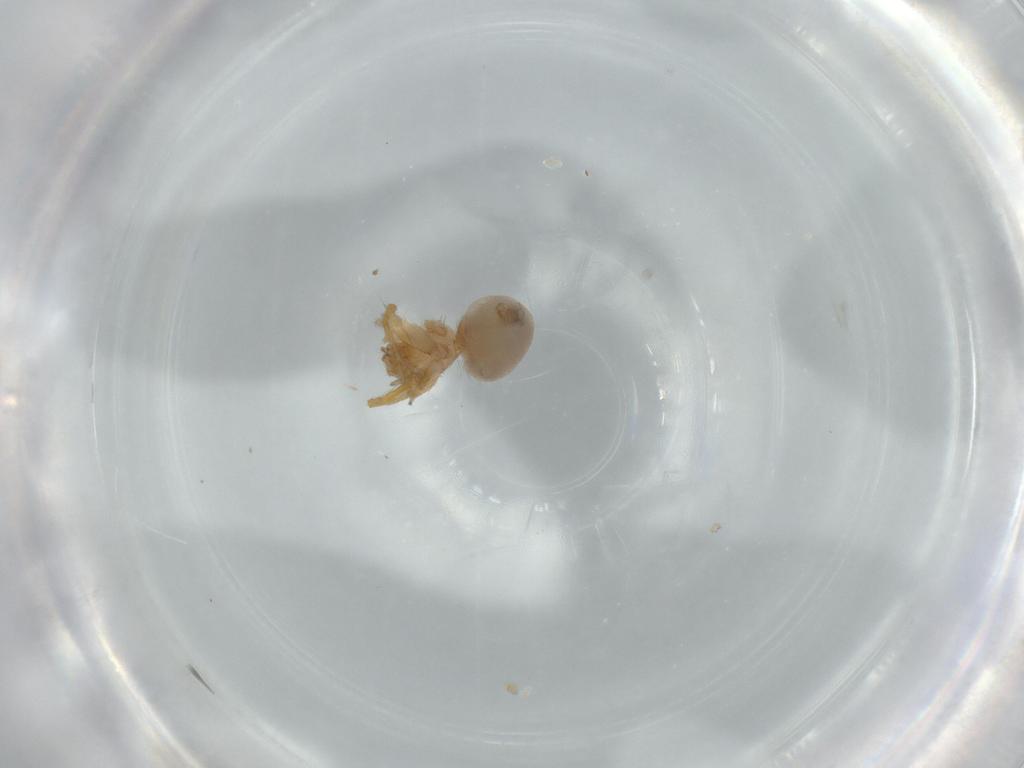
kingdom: Animalia
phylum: Arthropoda
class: Arachnida
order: Araneae
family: Oonopidae
